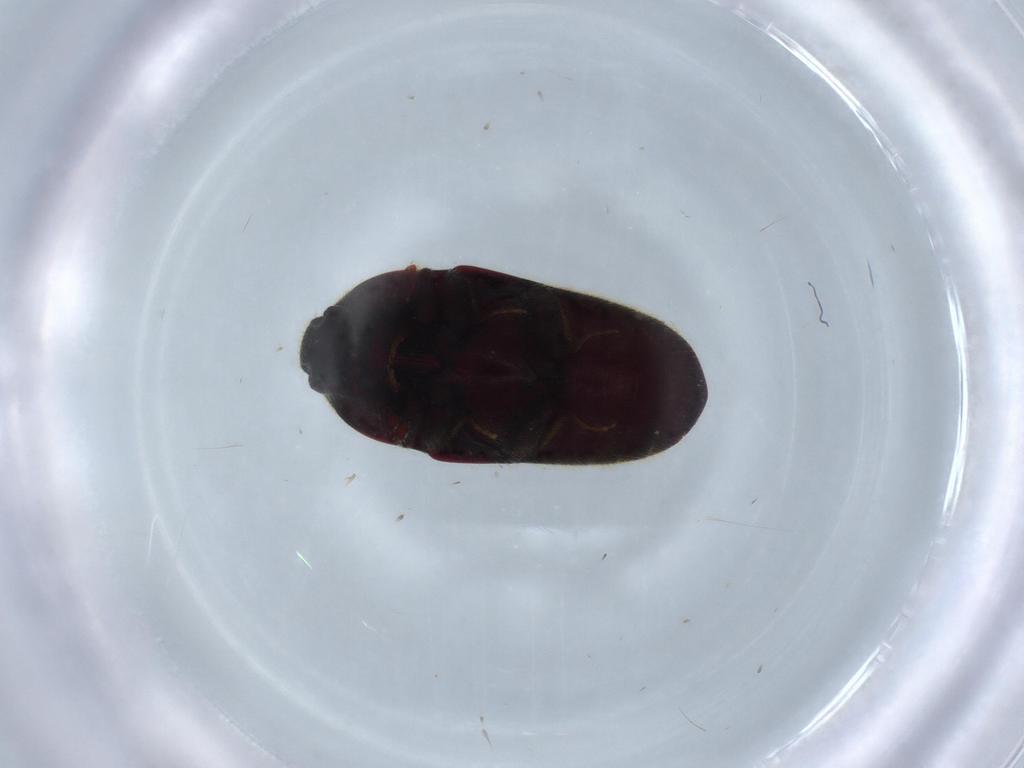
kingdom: Animalia
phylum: Arthropoda
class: Insecta
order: Coleoptera
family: Throscidae
